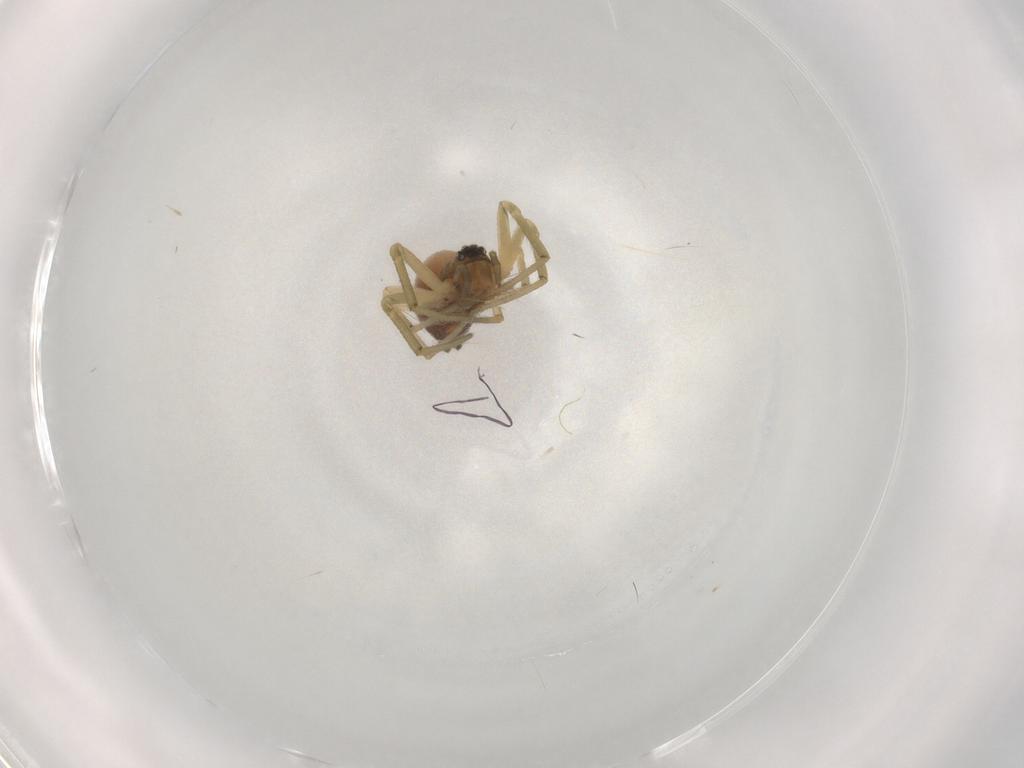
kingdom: Animalia
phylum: Arthropoda
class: Arachnida
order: Araneae
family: Linyphiidae
